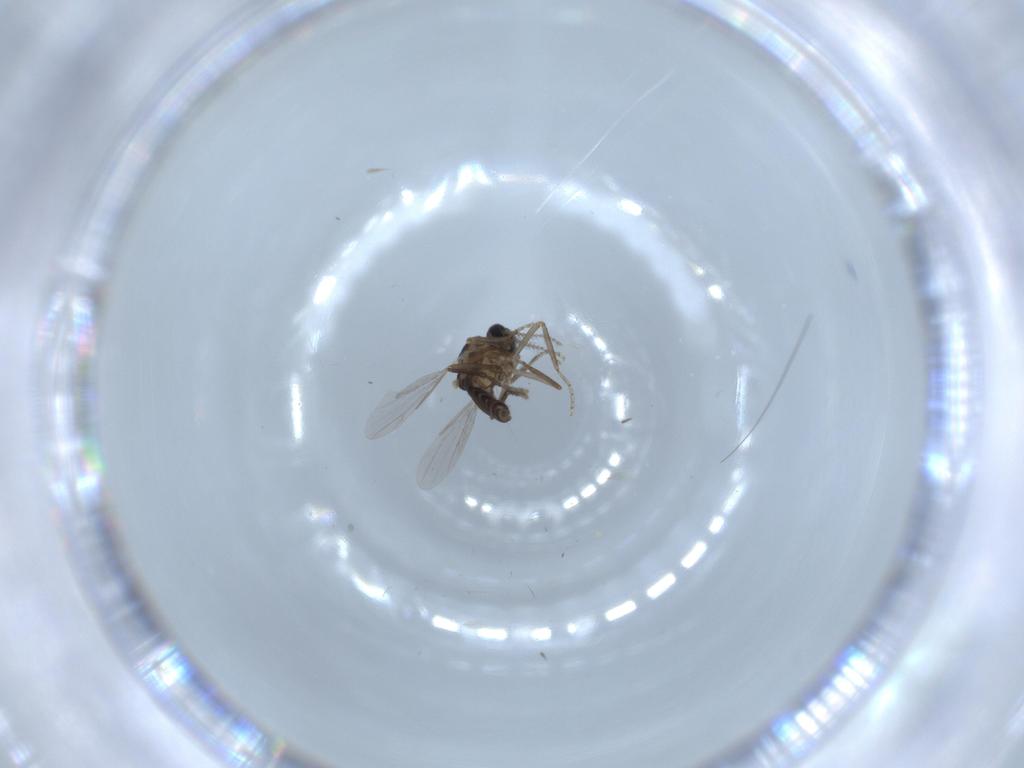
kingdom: Animalia
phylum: Arthropoda
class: Insecta
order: Diptera
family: Ceratopogonidae
